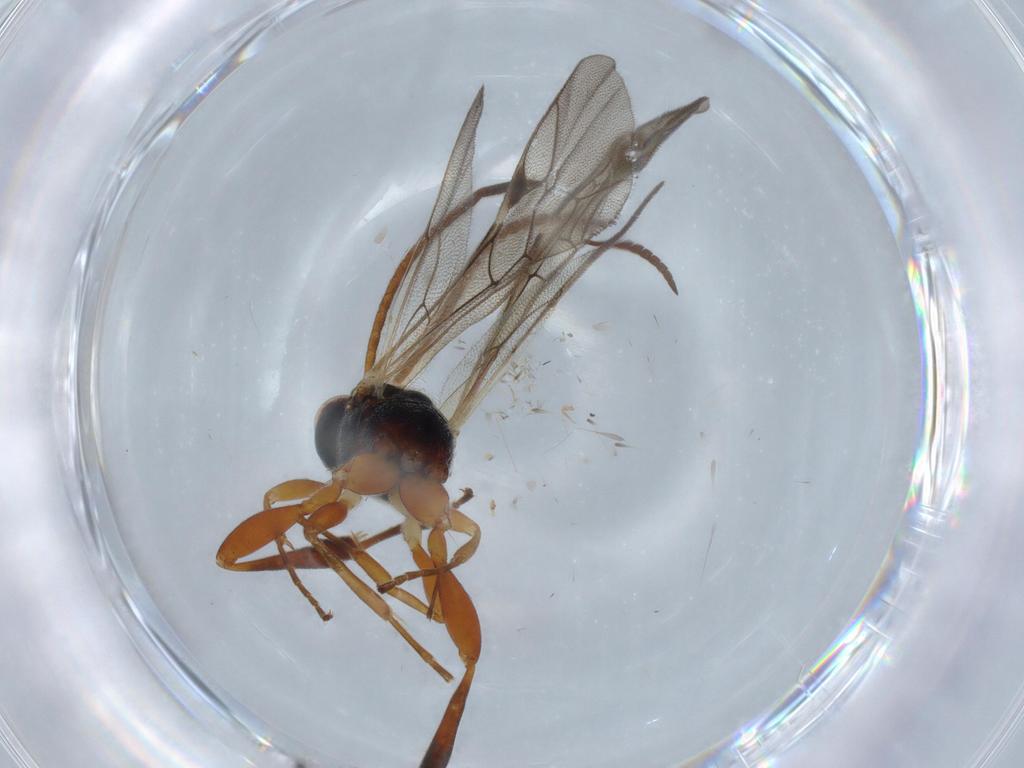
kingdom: Animalia
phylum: Arthropoda
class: Insecta
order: Hymenoptera
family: Ichneumonidae
